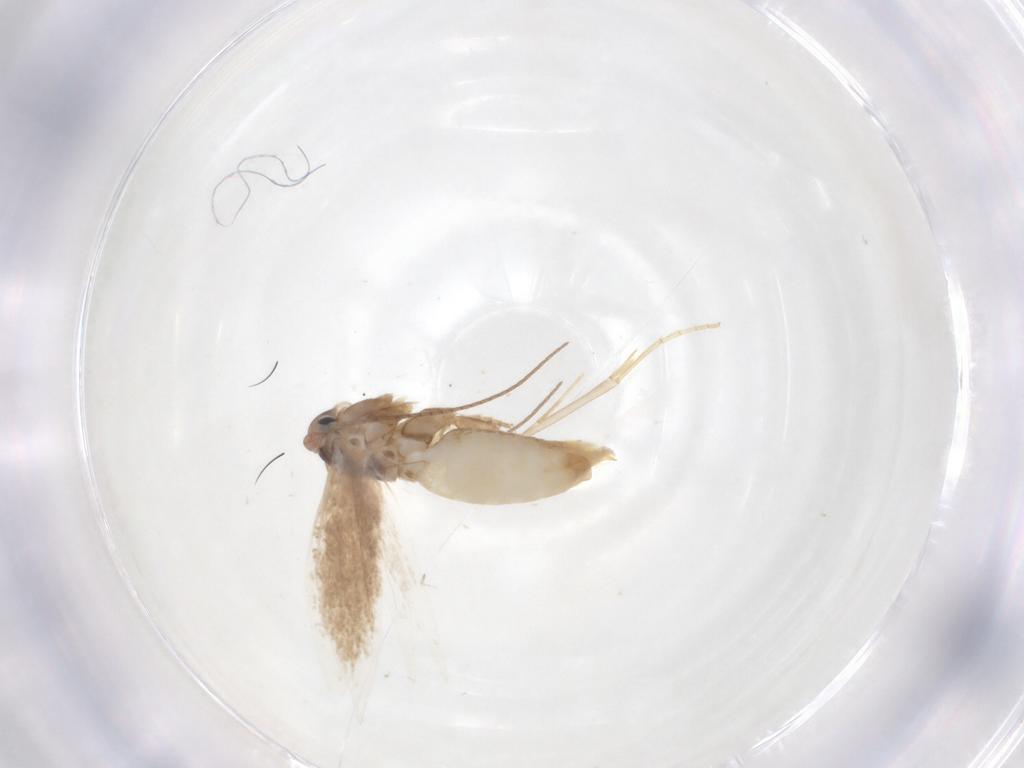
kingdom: Animalia
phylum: Arthropoda
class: Insecta
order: Lepidoptera
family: Bucculatricidae
